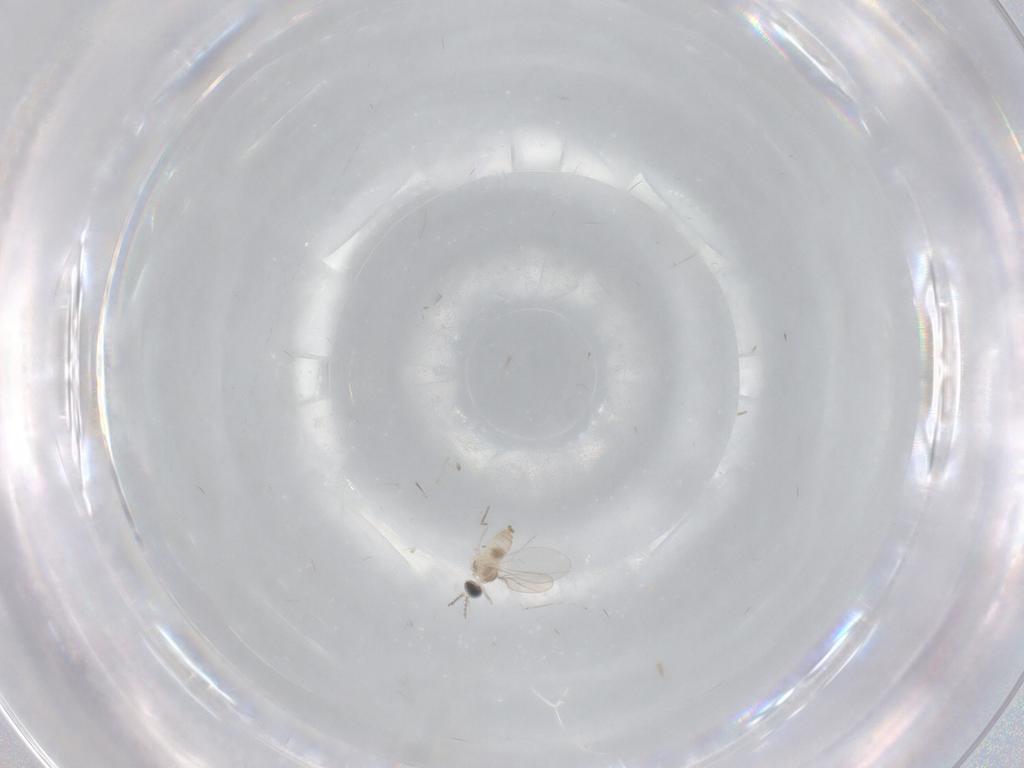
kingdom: Animalia
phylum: Arthropoda
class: Insecta
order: Diptera
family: Cecidomyiidae
